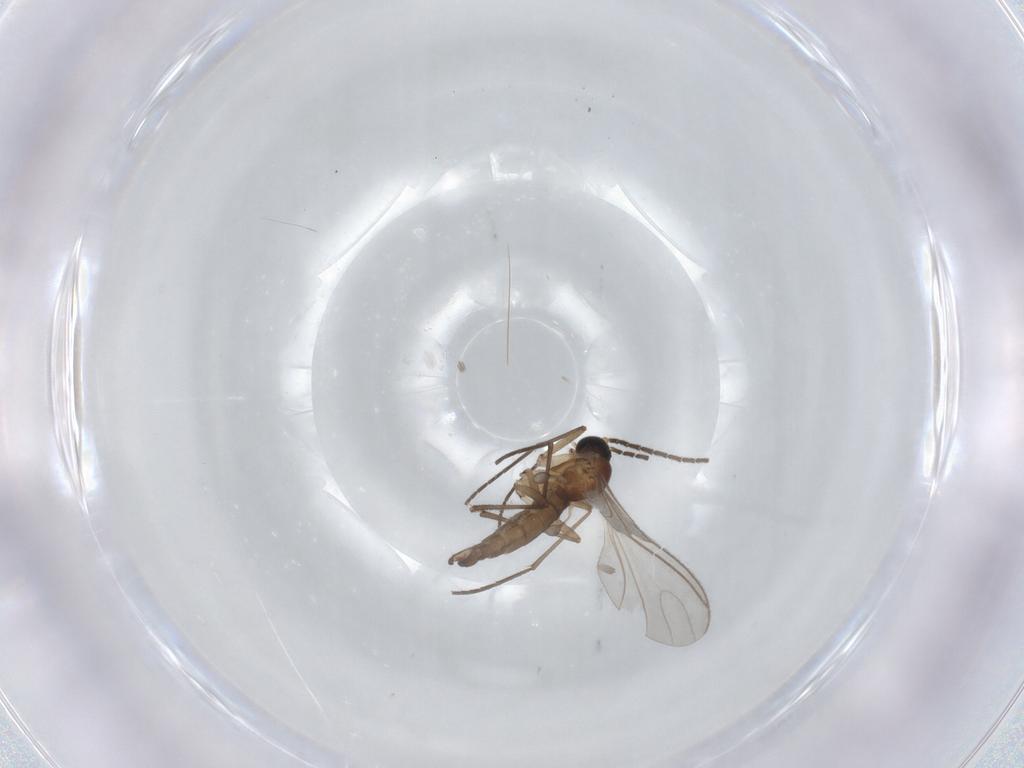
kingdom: Animalia
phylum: Arthropoda
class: Insecta
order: Diptera
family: Sciaridae
